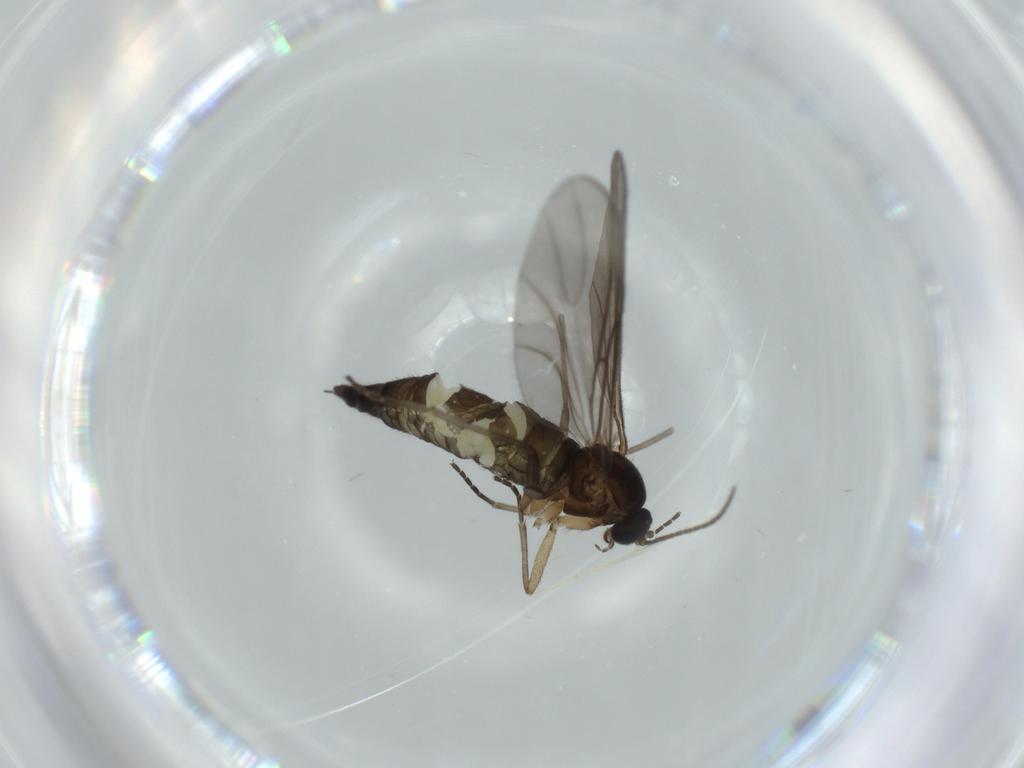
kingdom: Animalia
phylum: Arthropoda
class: Insecta
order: Diptera
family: Sciaridae
